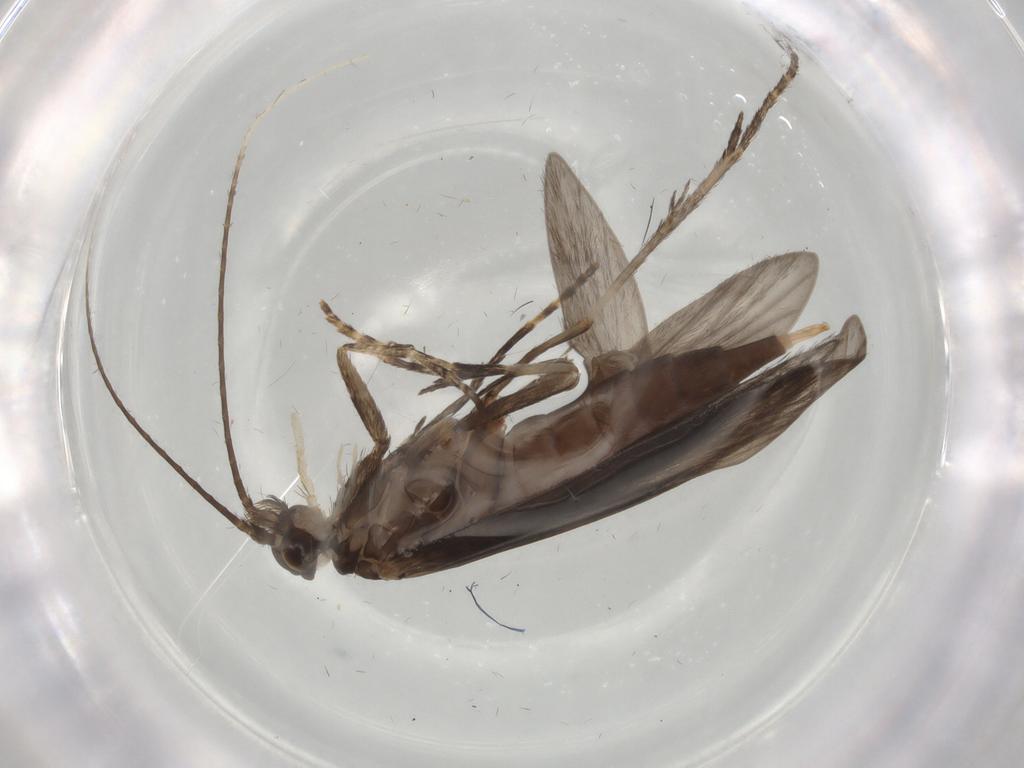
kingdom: Animalia
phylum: Arthropoda
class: Insecta
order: Trichoptera
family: Xiphocentronidae
